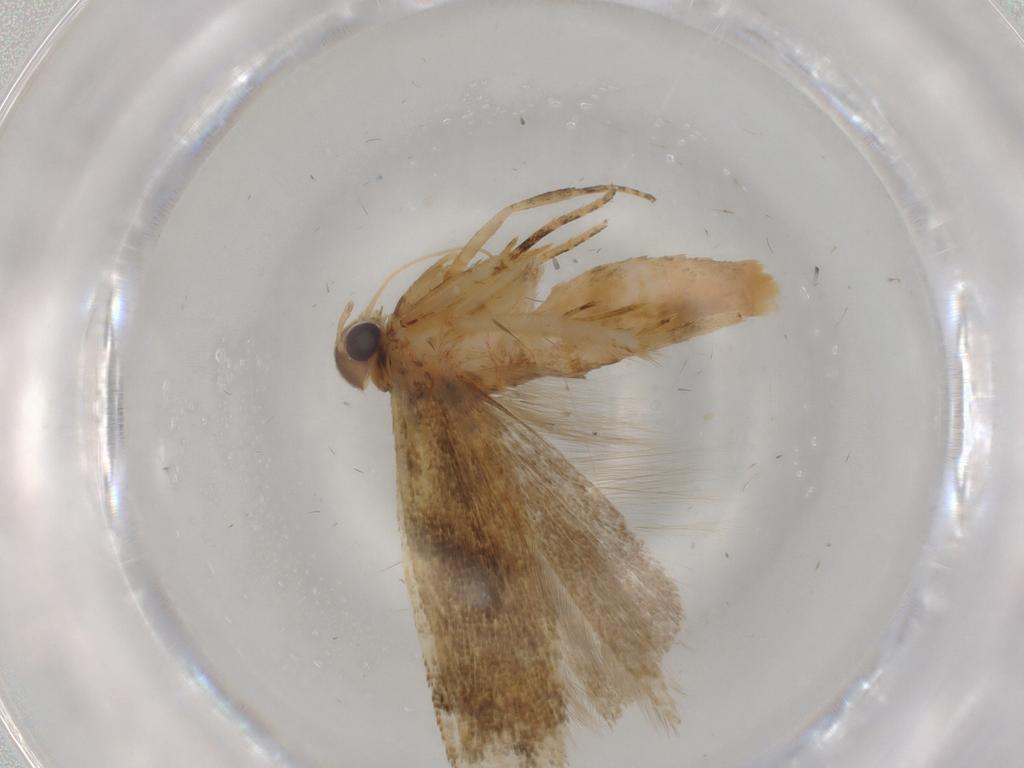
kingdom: Animalia
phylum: Arthropoda
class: Insecta
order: Lepidoptera
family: Gelechiidae
